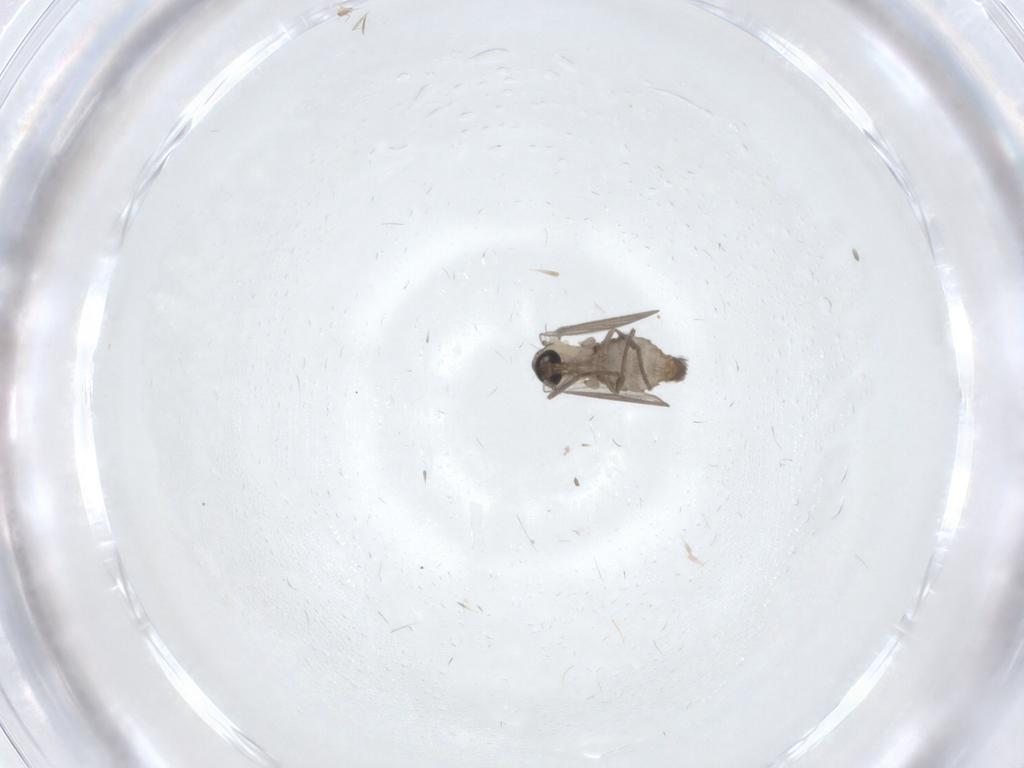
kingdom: Animalia
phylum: Arthropoda
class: Insecta
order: Diptera
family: Psychodidae
